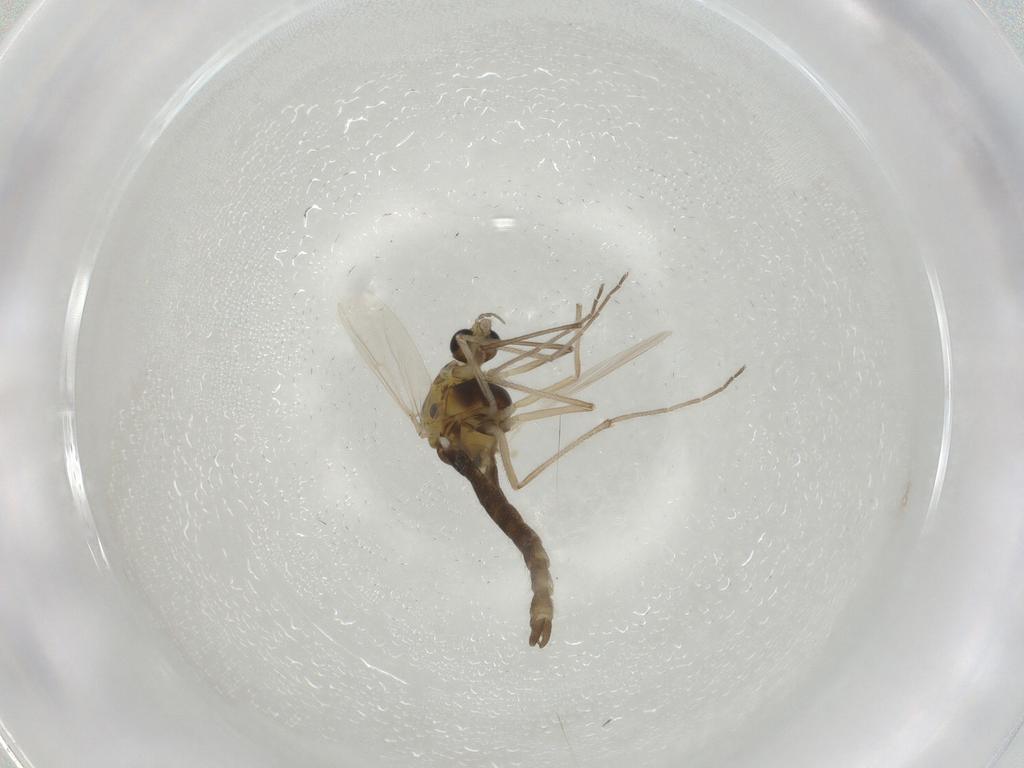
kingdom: Animalia
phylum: Arthropoda
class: Insecta
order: Diptera
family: Chironomidae
